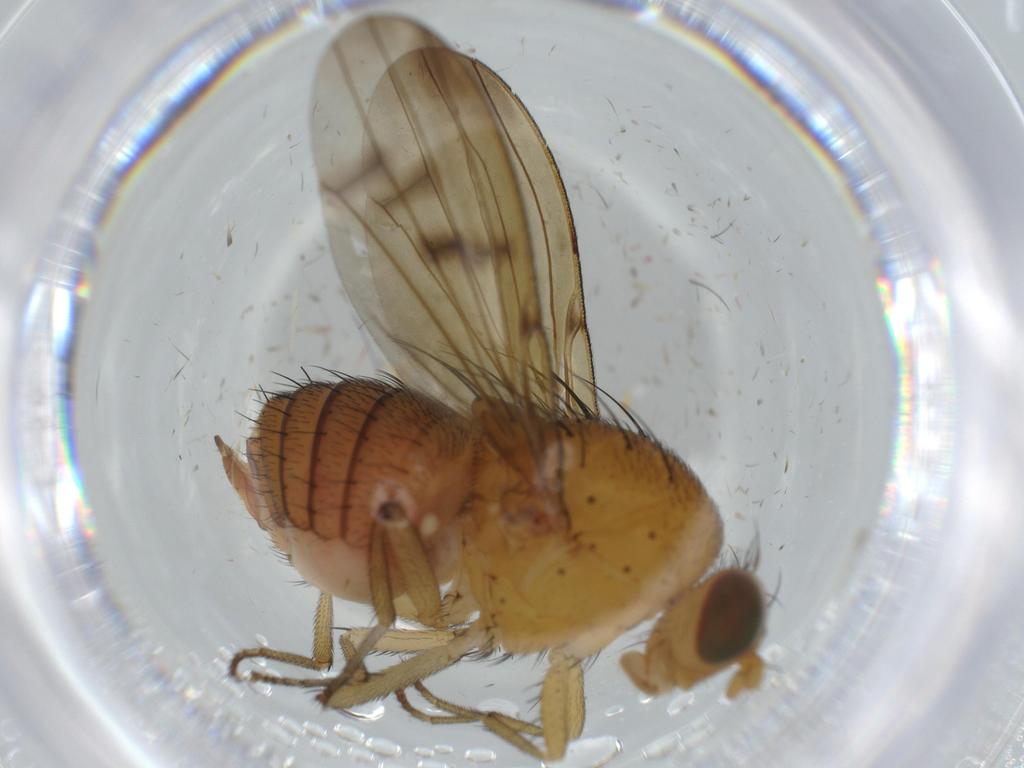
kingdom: Animalia
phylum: Arthropoda
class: Insecta
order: Diptera
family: Ceratopogonidae
